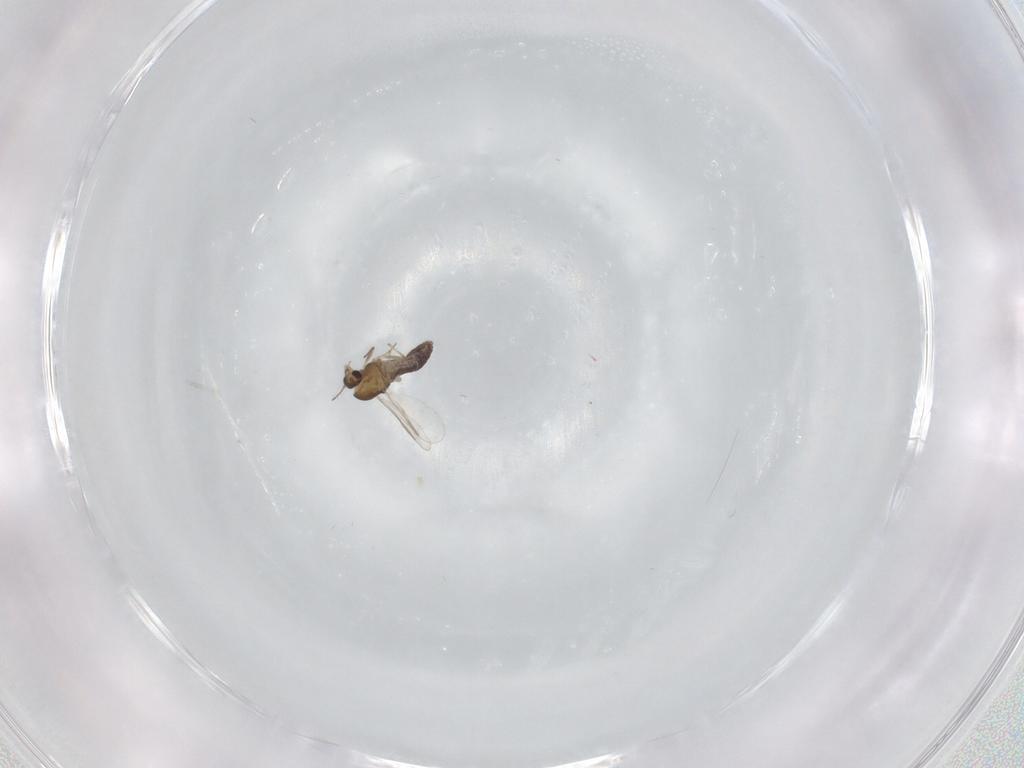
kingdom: Animalia
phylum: Arthropoda
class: Insecta
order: Diptera
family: Chironomidae
